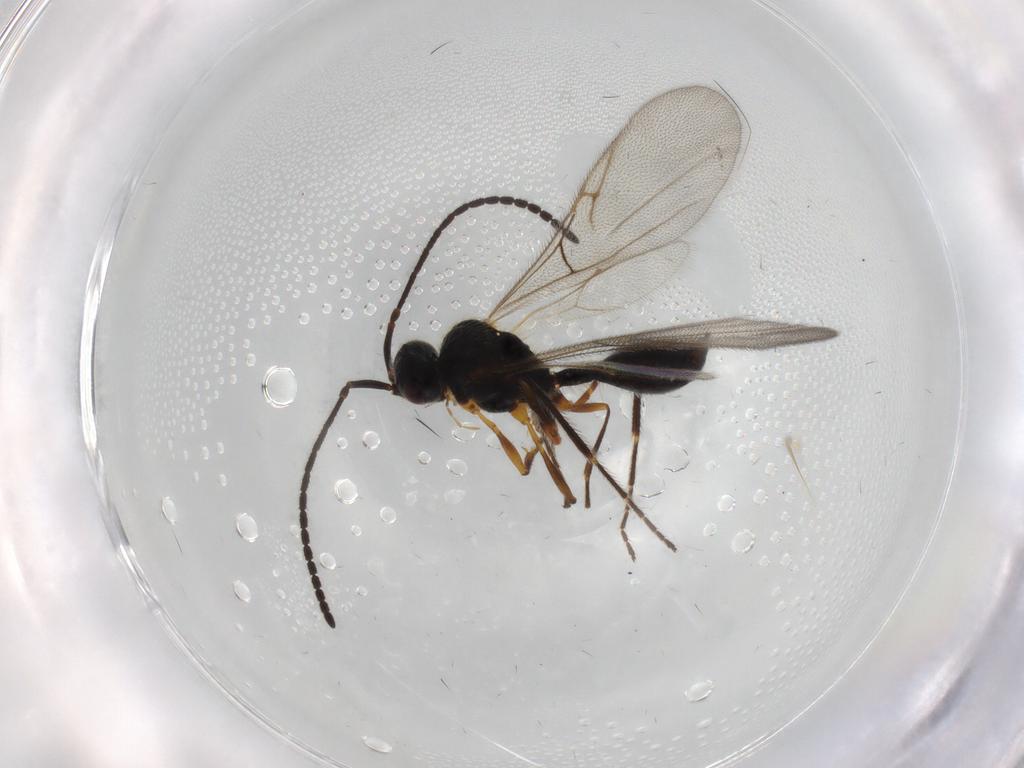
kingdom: Animalia
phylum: Arthropoda
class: Insecta
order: Hymenoptera
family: Diapriidae
